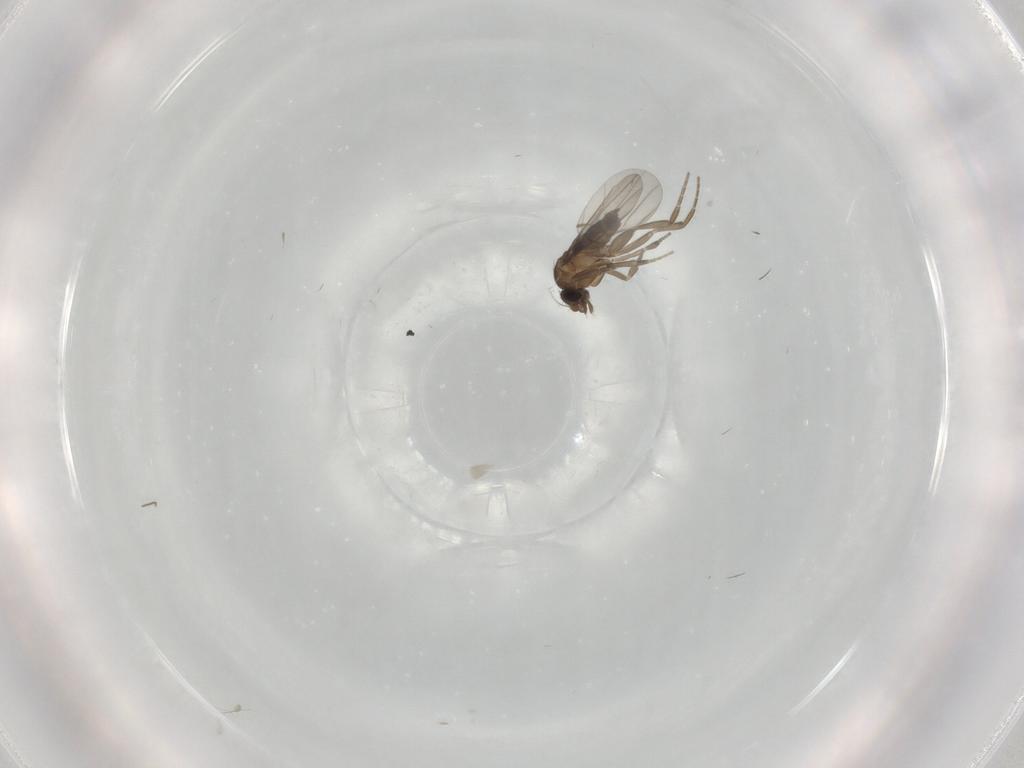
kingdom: Animalia
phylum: Arthropoda
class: Insecta
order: Diptera
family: Phoridae
